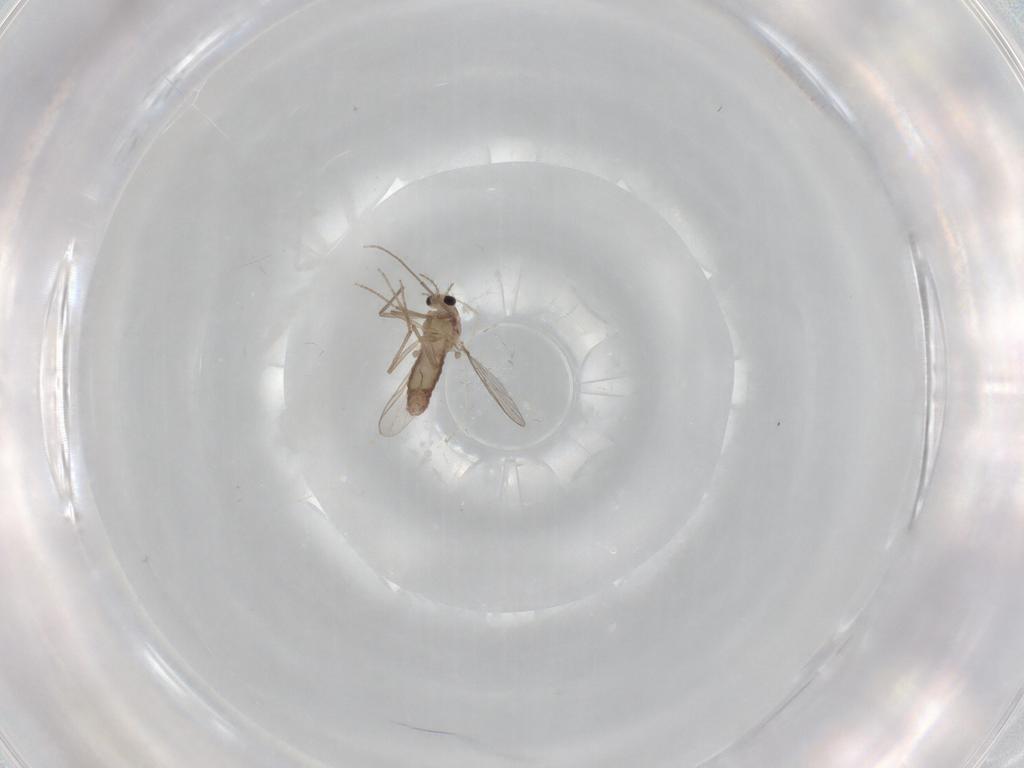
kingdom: Animalia
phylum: Arthropoda
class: Insecta
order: Diptera
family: Chironomidae
